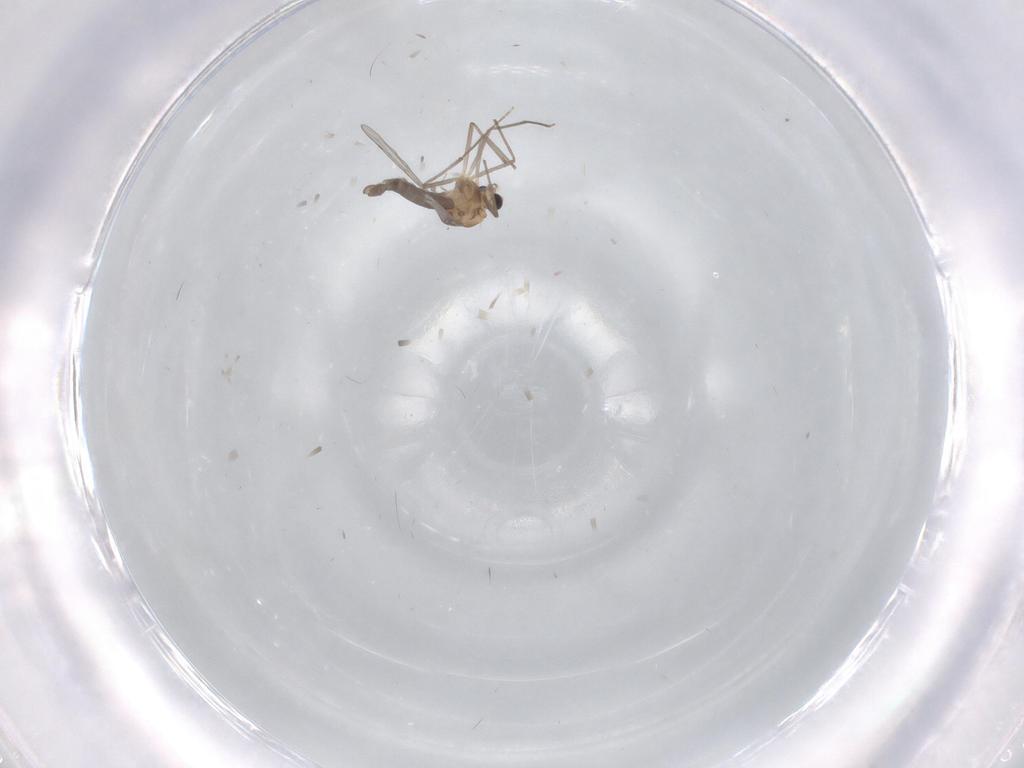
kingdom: Animalia
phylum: Arthropoda
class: Insecta
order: Diptera
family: Chironomidae
